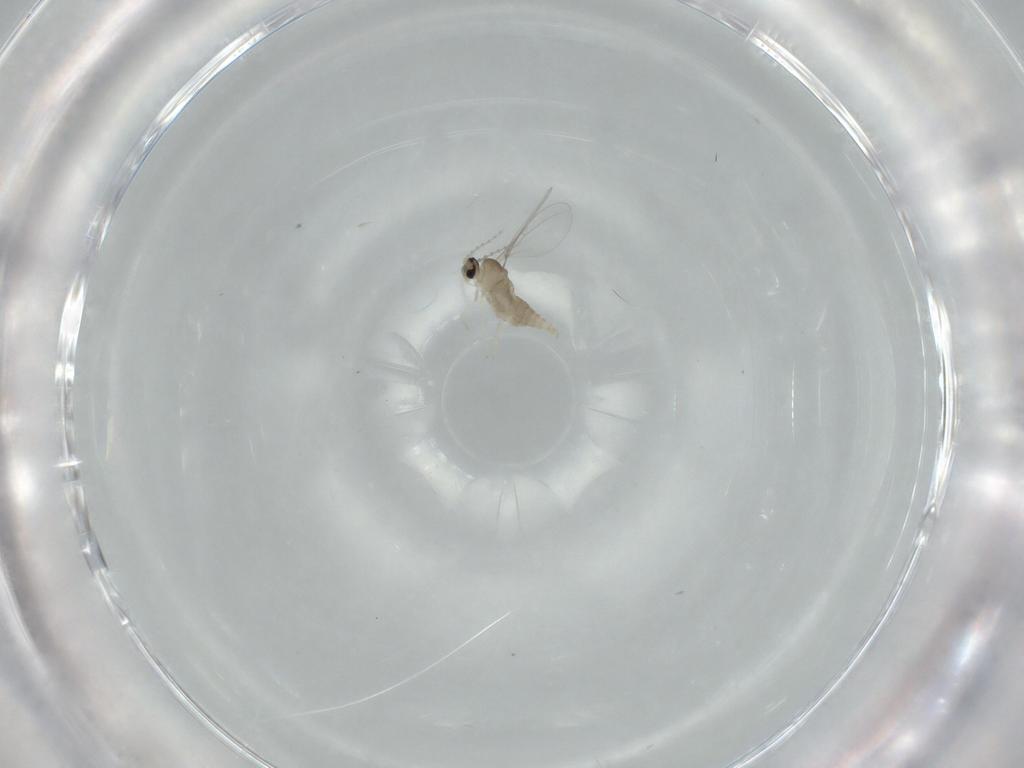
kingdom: Animalia
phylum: Arthropoda
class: Insecta
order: Diptera
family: Cecidomyiidae
